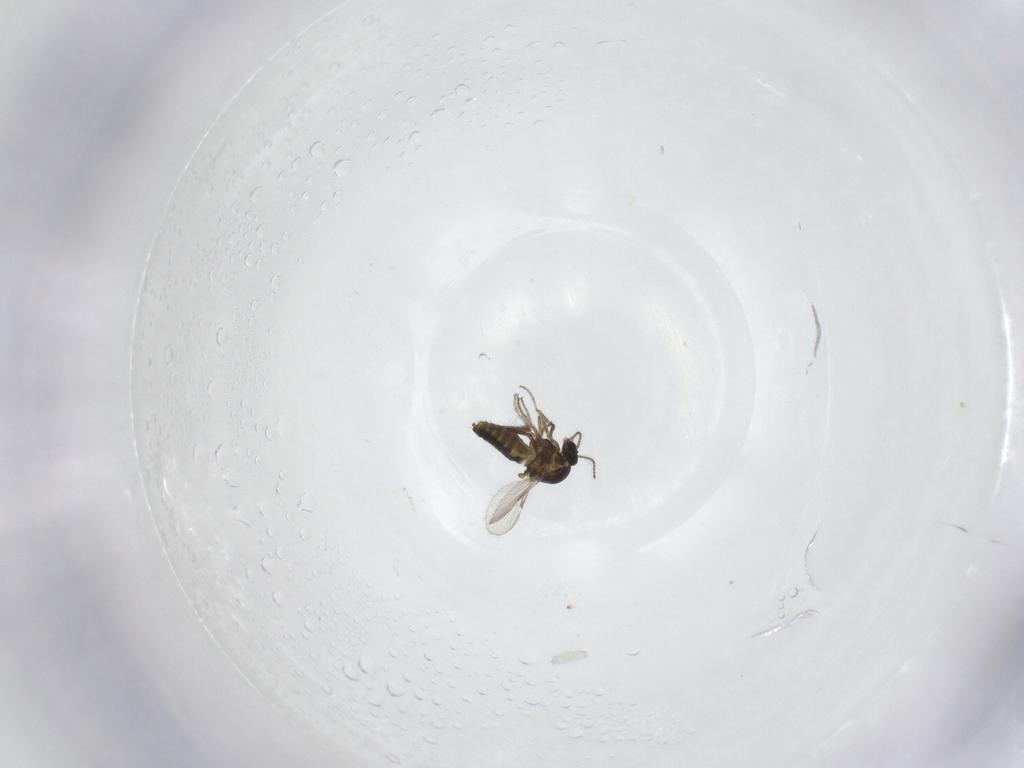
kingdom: Animalia
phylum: Arthropoda
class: Insecta
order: Diptera
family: Ceratopogonidae
